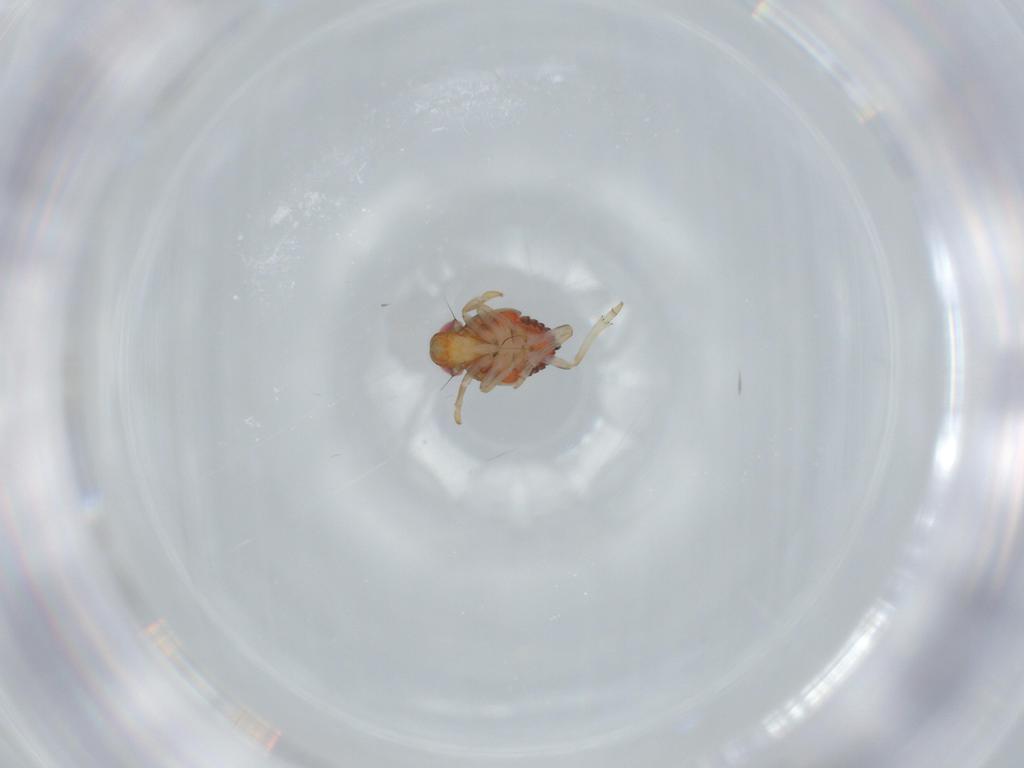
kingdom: Animalia
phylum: Arthropoda
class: Insecta
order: Hemiptera
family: Issidae
